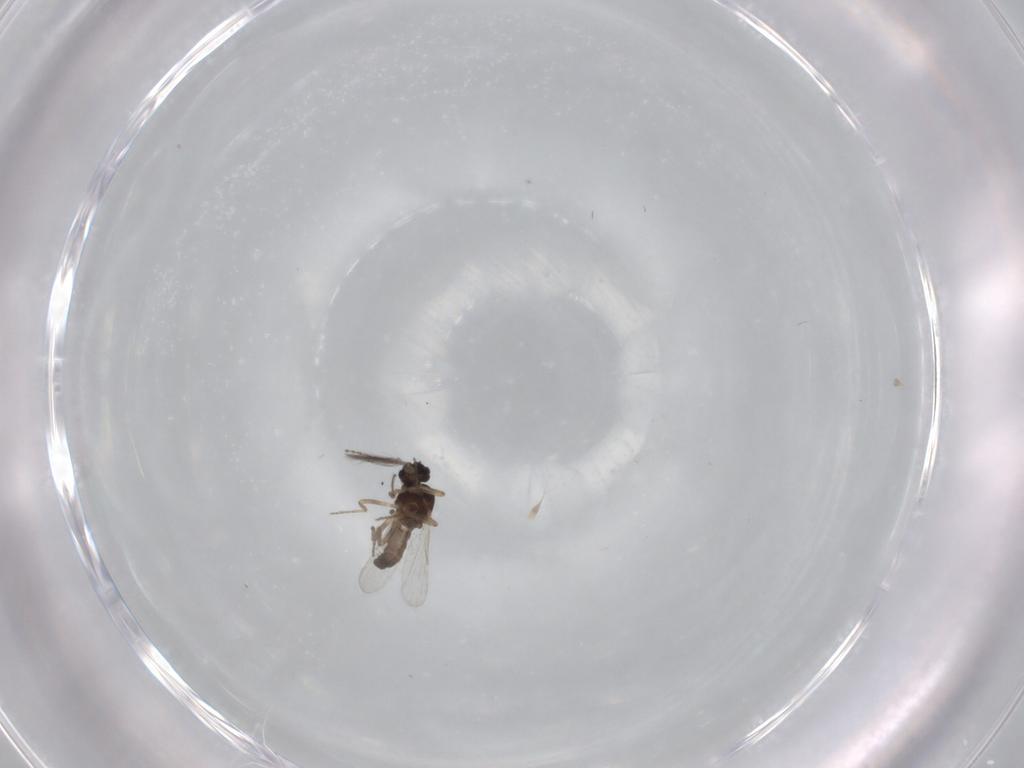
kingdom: Animalia
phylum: Arthropoda
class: Insecta
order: Diptera
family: Ceratopogonidae
